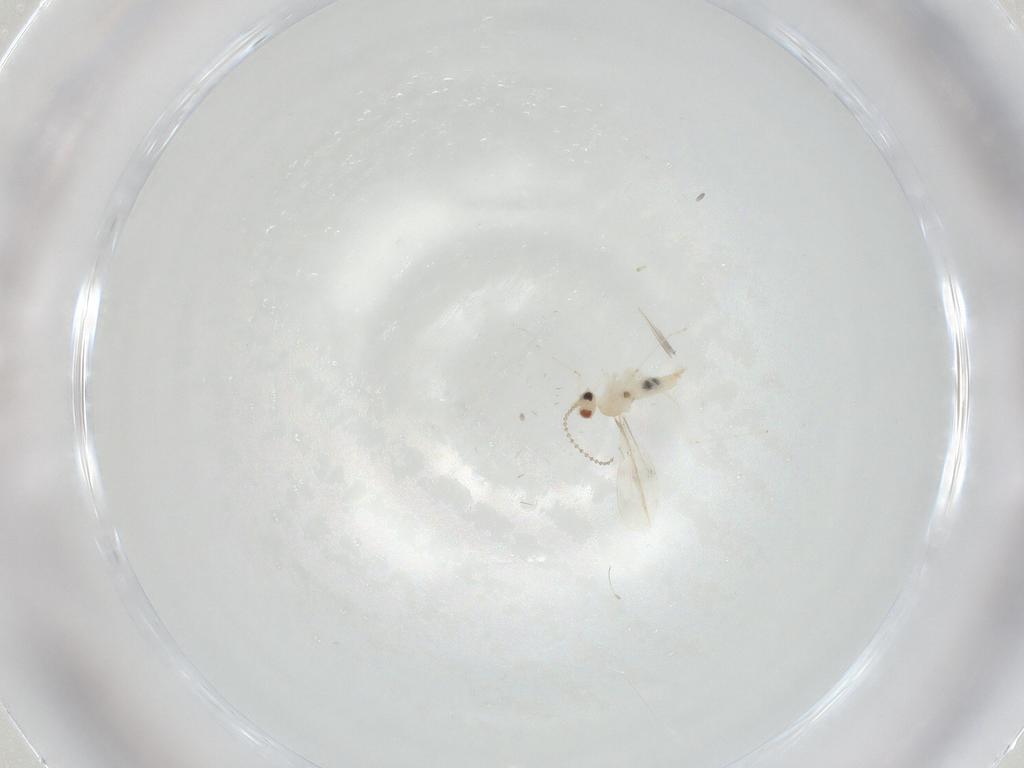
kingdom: Animalia
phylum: Arthropoda
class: Insecta
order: Diptera
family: Cecidomyiidae
